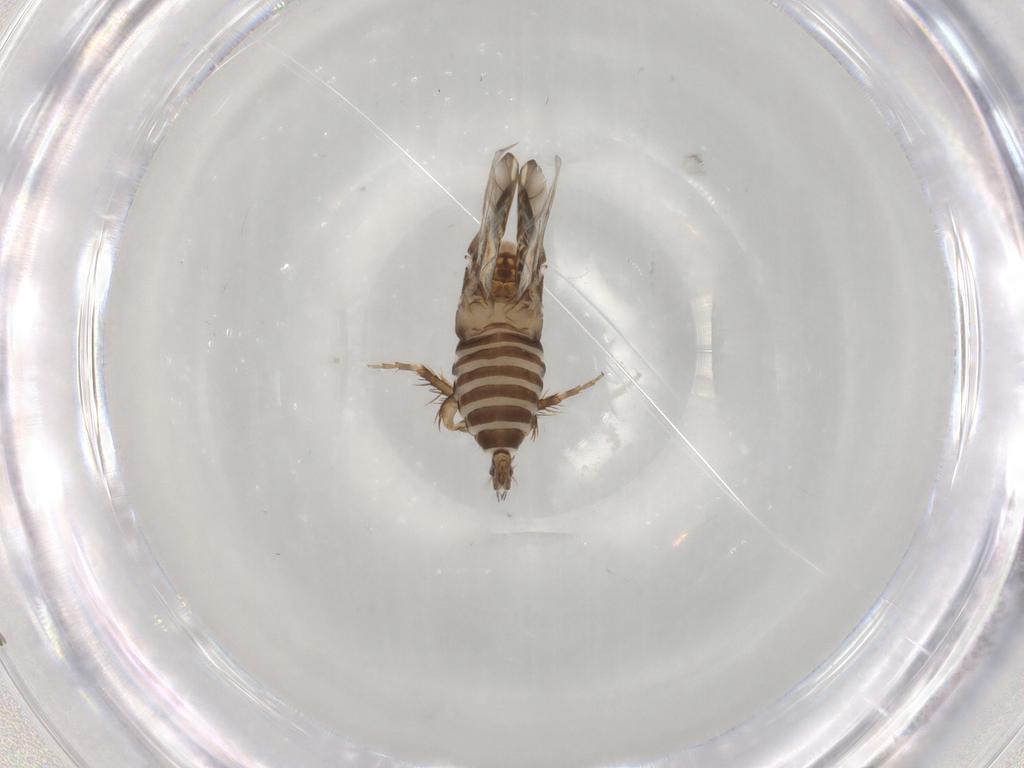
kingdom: Animalia
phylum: Arthropoda
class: Insecta
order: Hemiptera
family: Cicadellidae
